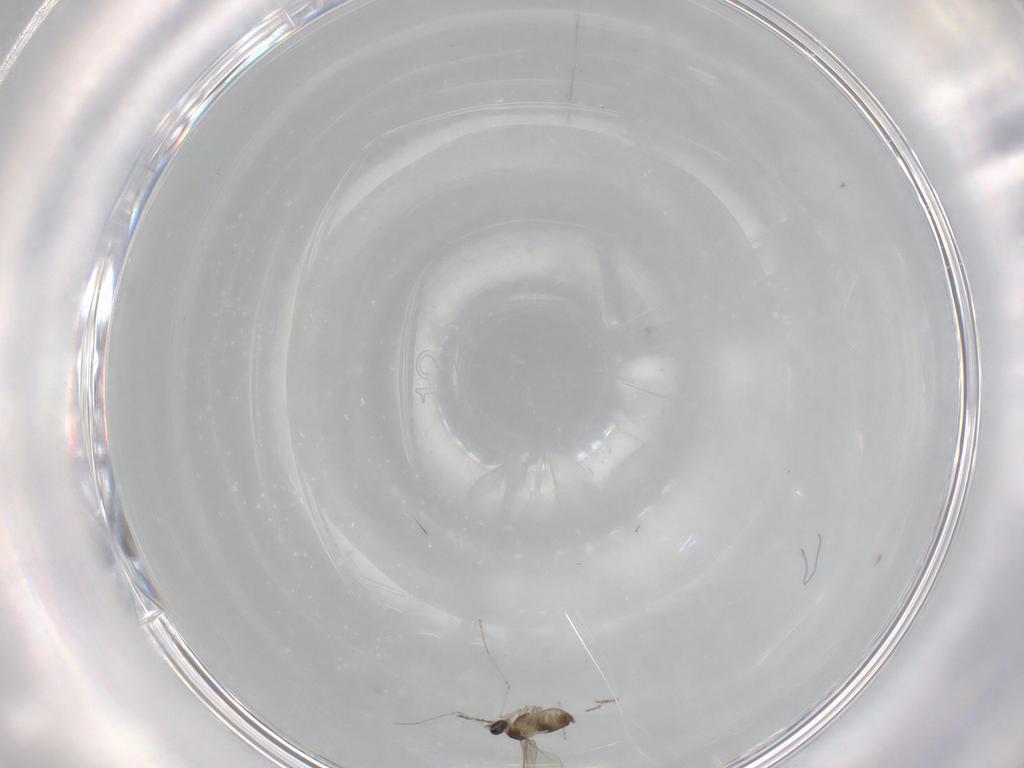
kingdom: Animalia
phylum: Arthropoda
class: Insecta
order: Diptera
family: Cecidomyiidae
